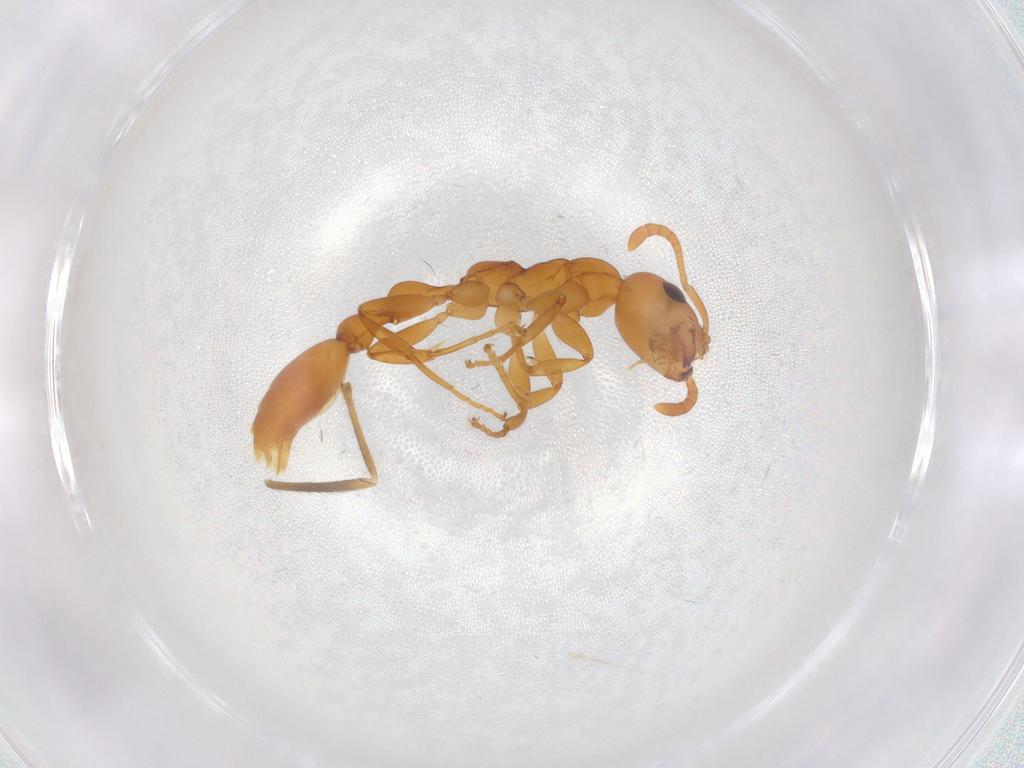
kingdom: Animalia
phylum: Arthropoda
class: Insecta
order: Hymenoptera
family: Formicidae
